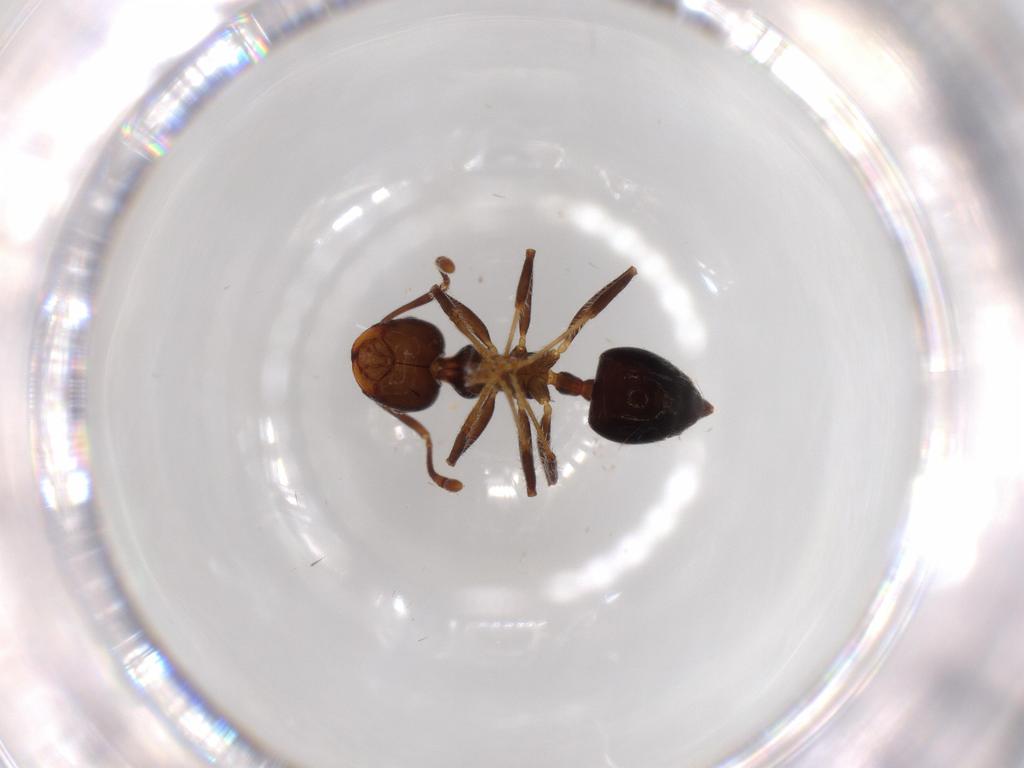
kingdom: Animalia
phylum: Arthropoda
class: Insecta
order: Hymenoptera
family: Formicidae
